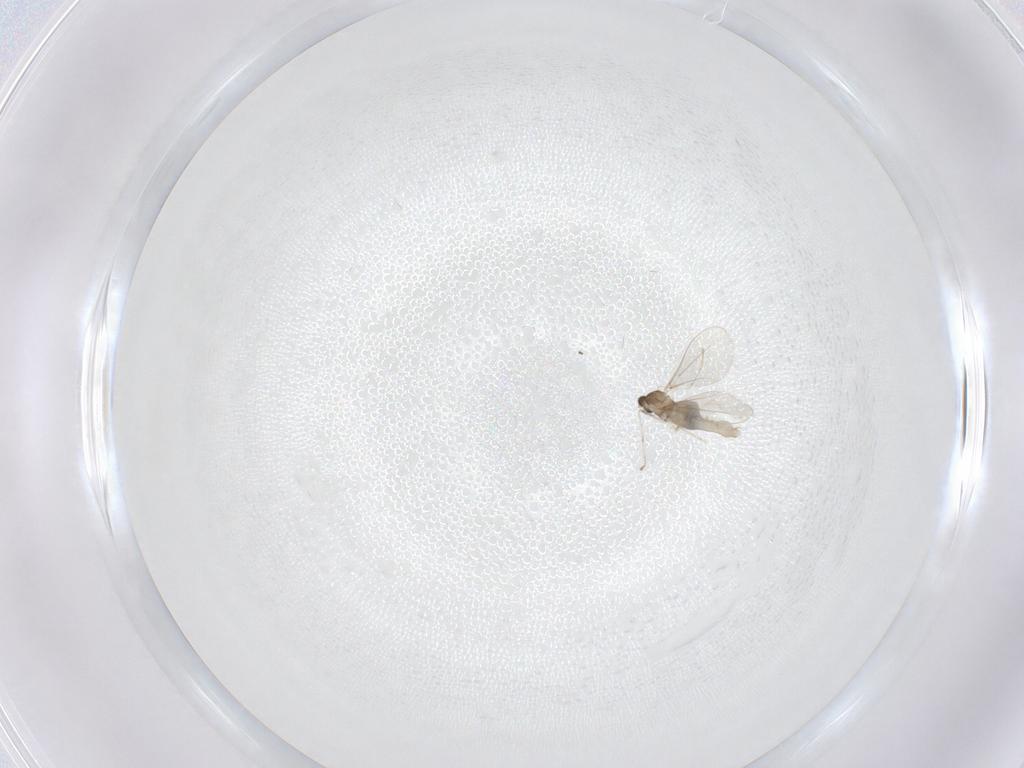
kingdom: Animalia
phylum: Arthropoda
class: Insecta
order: Diptera
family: Cecidomyiidae
